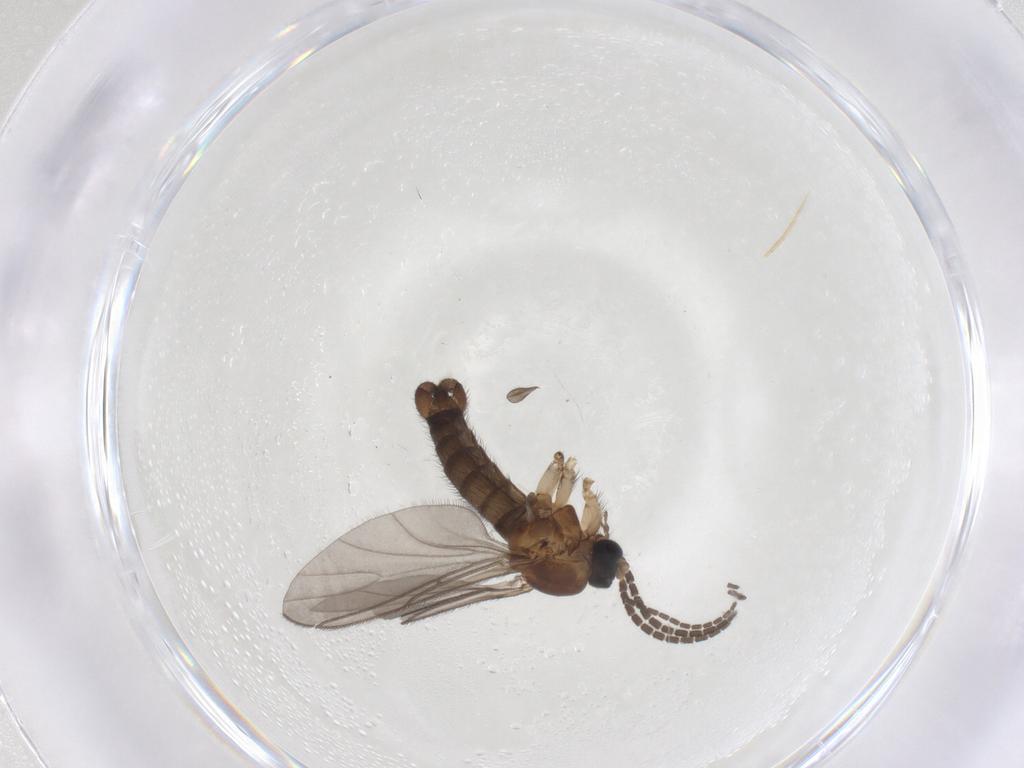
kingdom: Animalia
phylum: Arthropoda
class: Insecta
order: Diptera
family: Sciaridae
